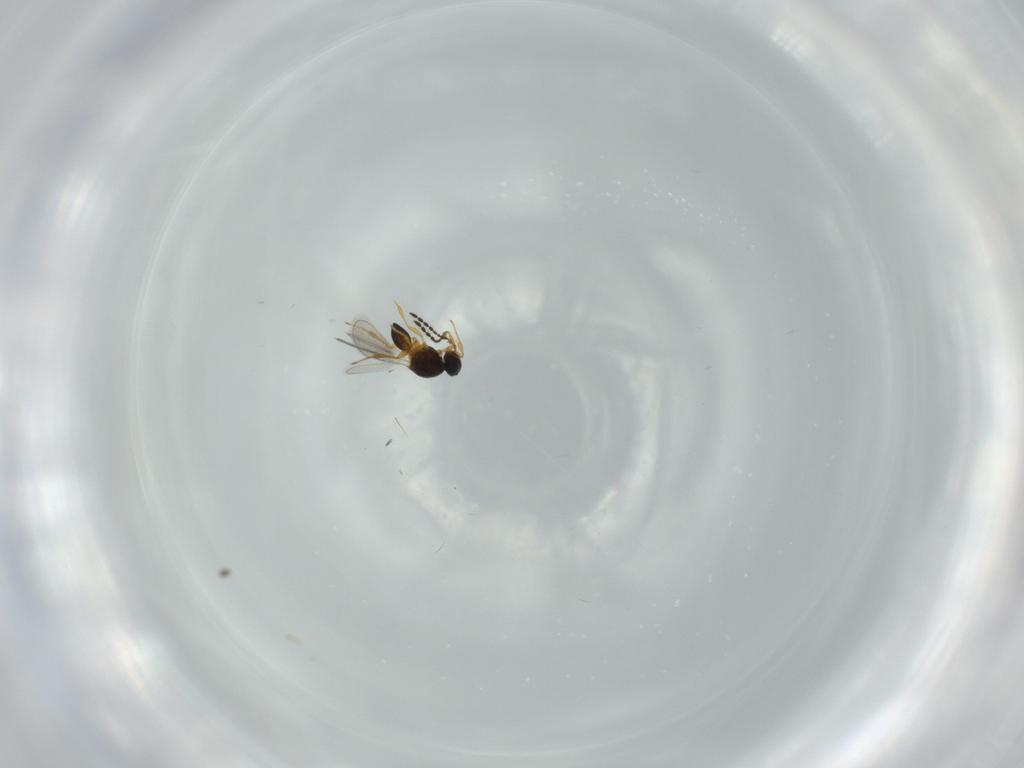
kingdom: Animalia
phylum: Arthropoda
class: Insecta
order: Hymenoptera
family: Platygastridae
